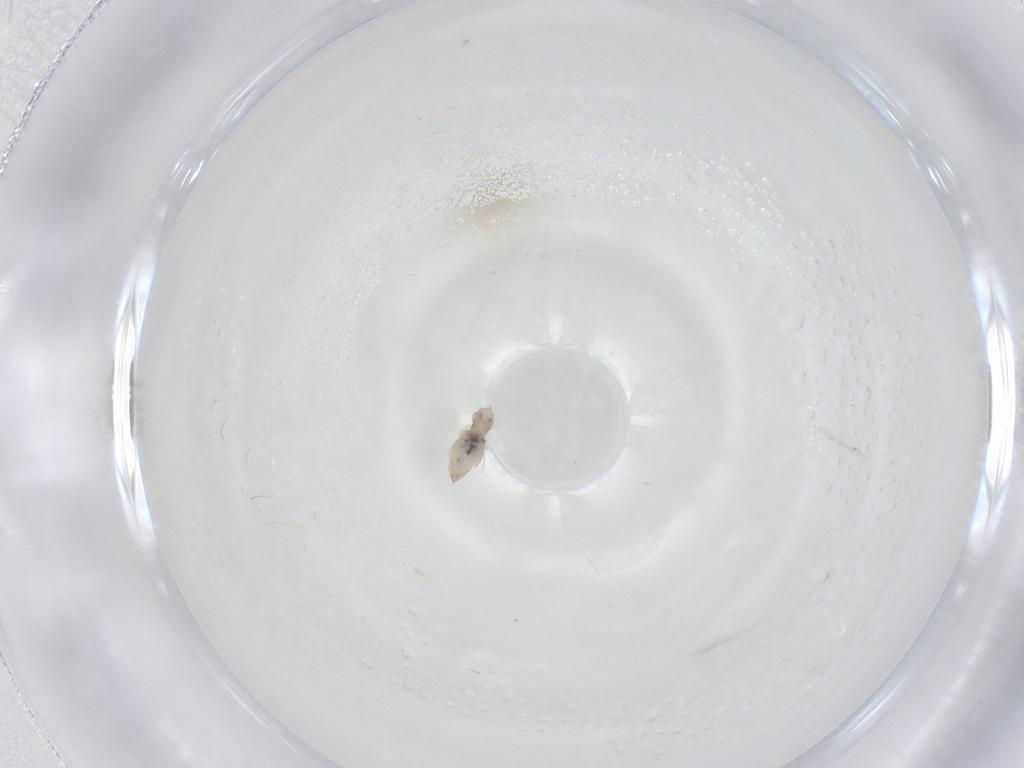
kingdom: Animalia
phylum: Arthropoda
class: Insecta
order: Diptera
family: Cecidomyiidae
